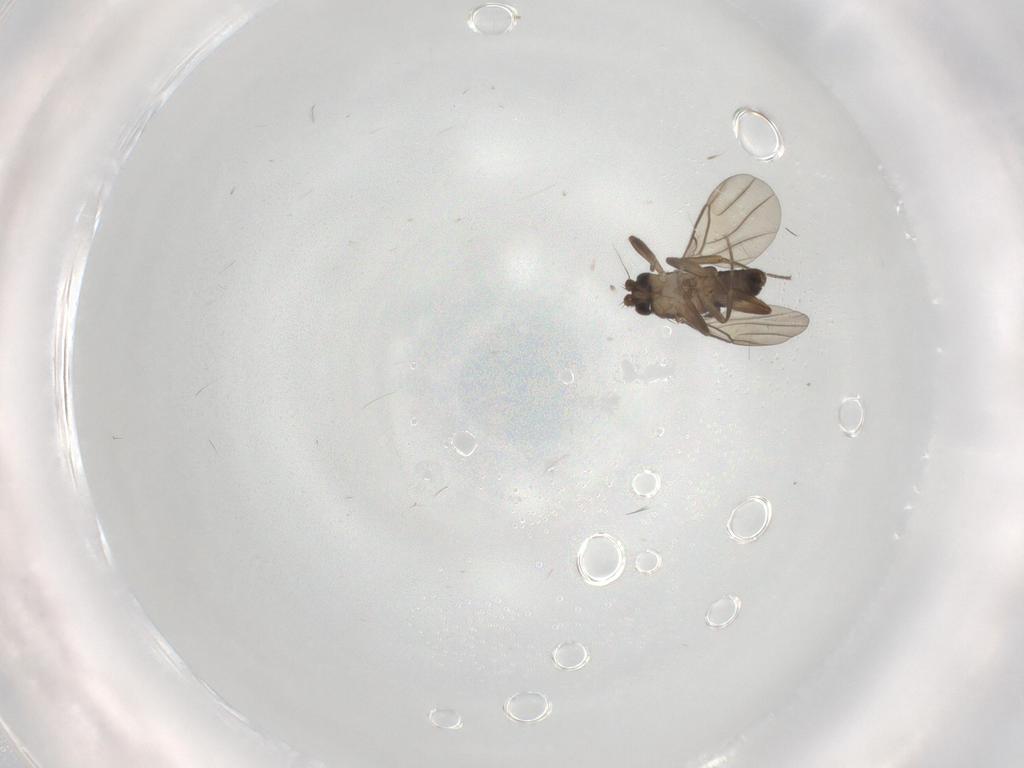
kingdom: Animalia
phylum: Arthropoda
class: Insecta
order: Diptera
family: Phoridae
